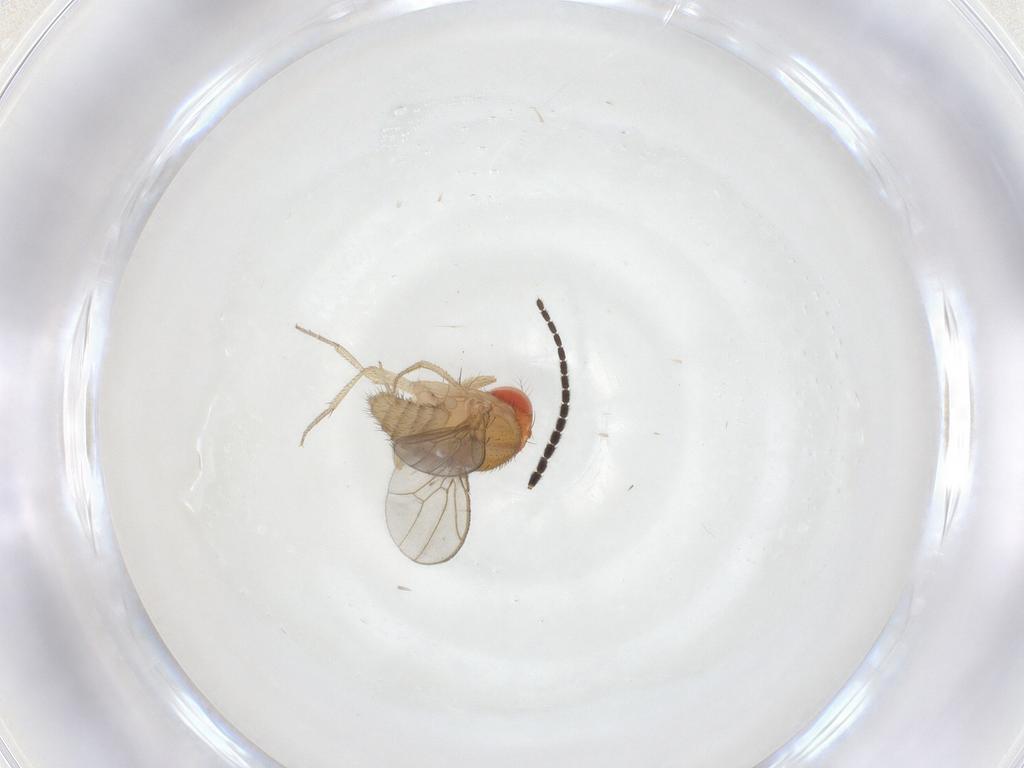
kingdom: Animalia
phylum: Arthropoda
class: Insecta
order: Diptera
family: Drosophilidae
